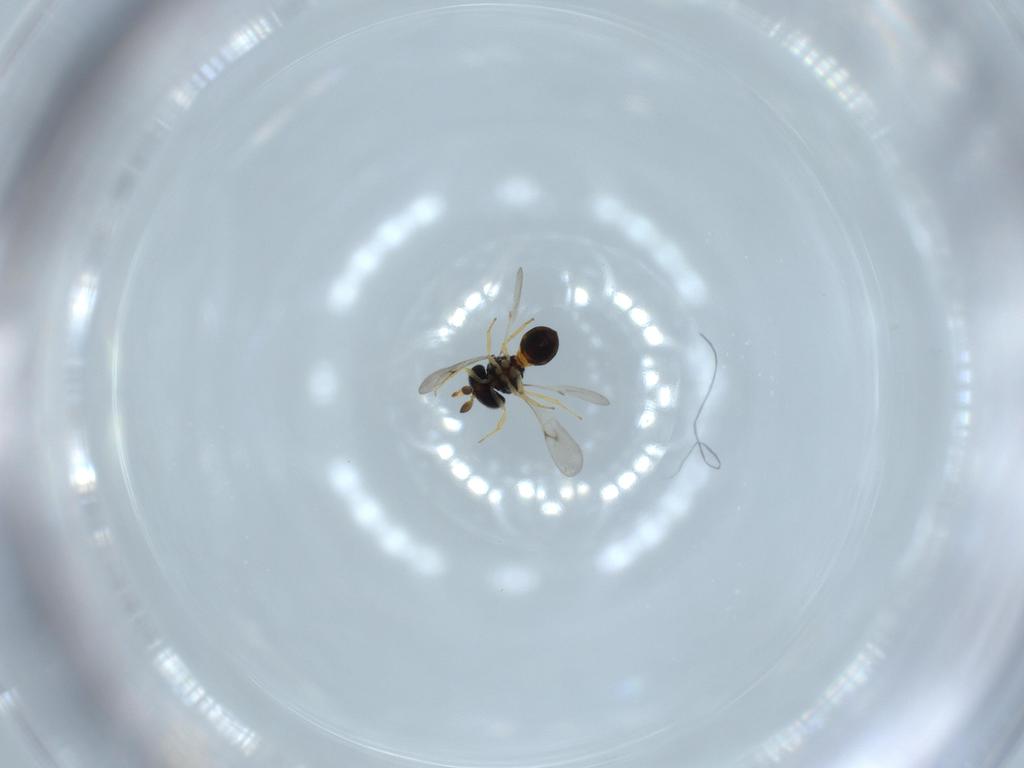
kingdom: Animalia
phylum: Arthropoda
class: Insecta
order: Hymenoptera
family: Scelionidae
